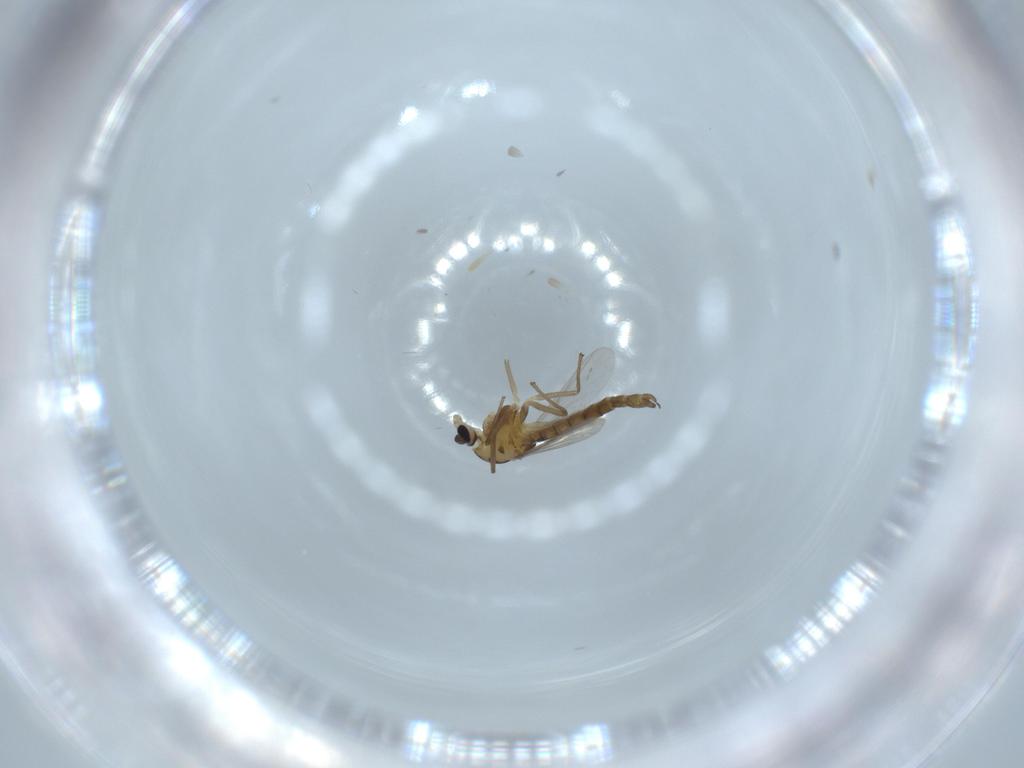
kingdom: Animalia
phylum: Arthropoda
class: Insecta
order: Diptera
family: Chironomidae
